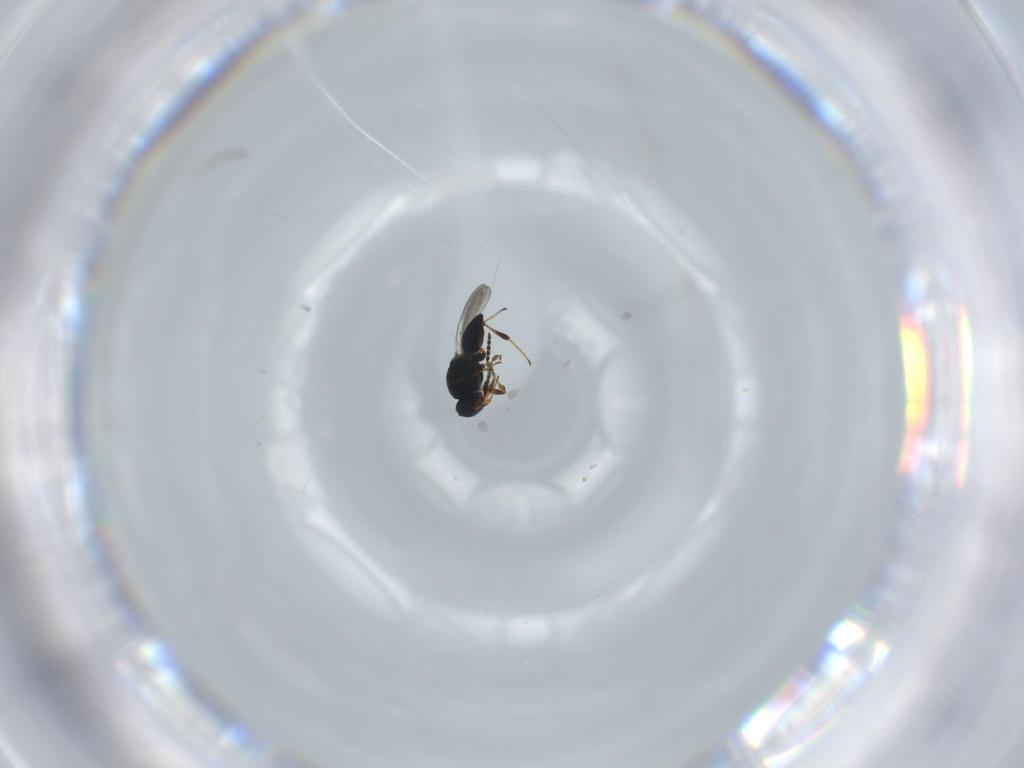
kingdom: Animalia
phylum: Arthropoda
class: Insecta
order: Hymenoptera
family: Platygastridae
